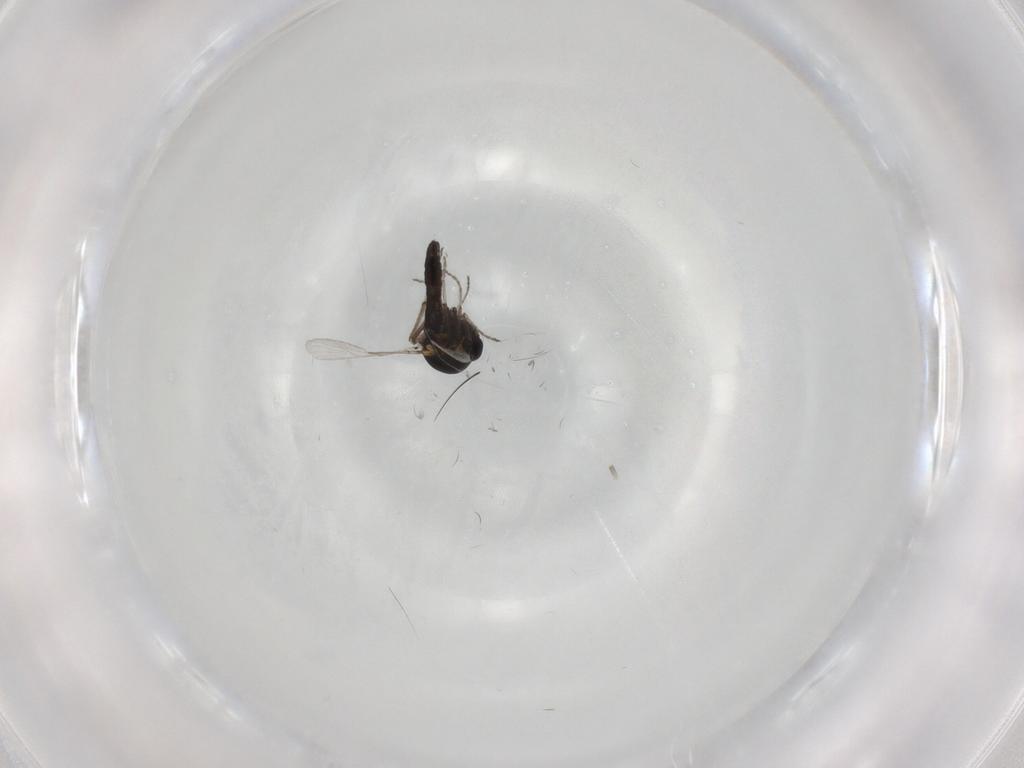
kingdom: Animalia
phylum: Arthropoda
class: Insecta
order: Diptera
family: Ceratopogonidae
